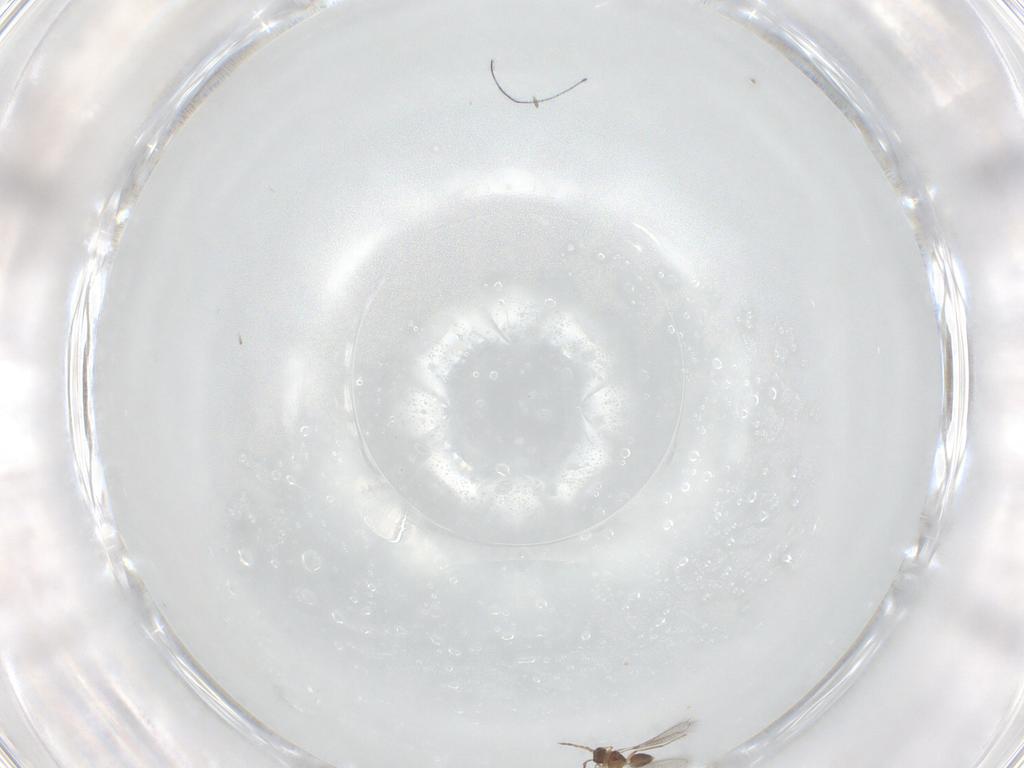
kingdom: Animalia
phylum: Arthropoda
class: Insecta
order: Hymenoptera
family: Mymaridae
